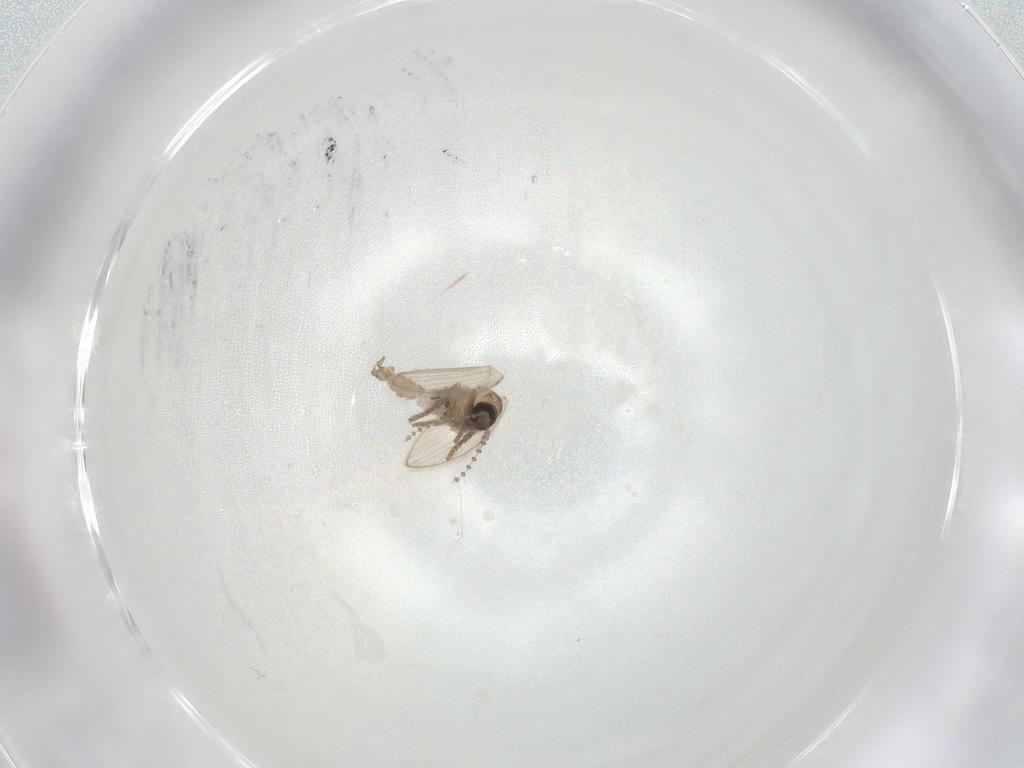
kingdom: Animalia
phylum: Arthropoda
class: Insecta
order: Diptera
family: Psychodidae
